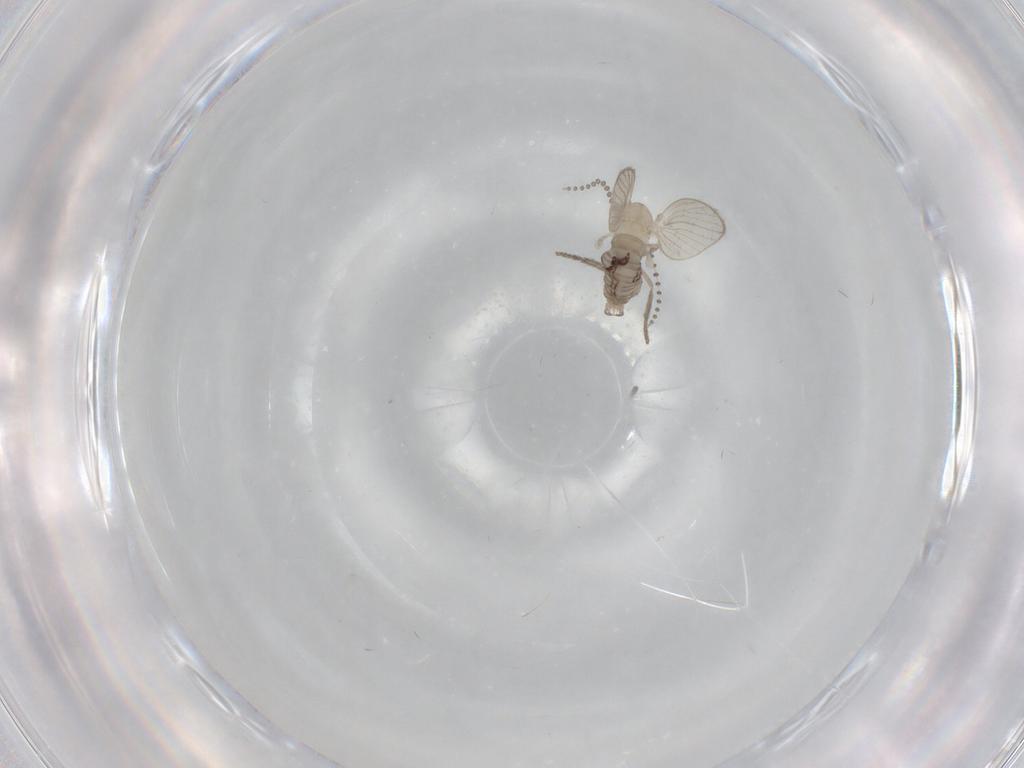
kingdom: Animalia
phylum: Arthropoda
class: Insecta
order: Diptera
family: Psychodidae
